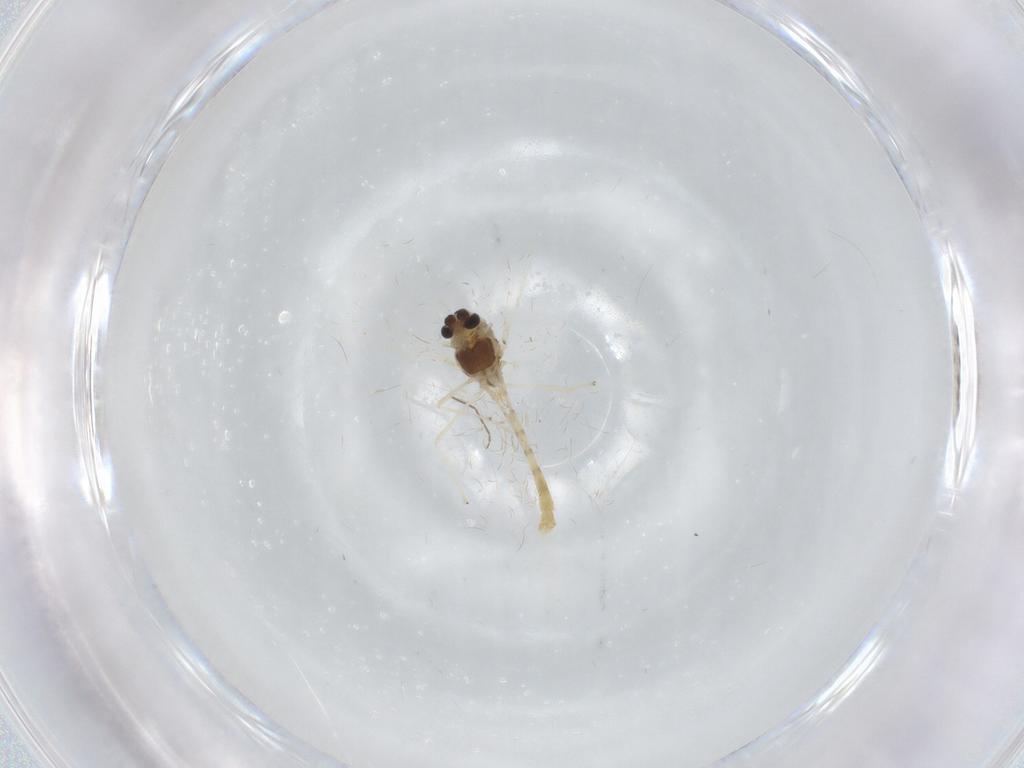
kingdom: Animalia
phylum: Arthropoda
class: Insecta
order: Diptera
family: Chironomidae
